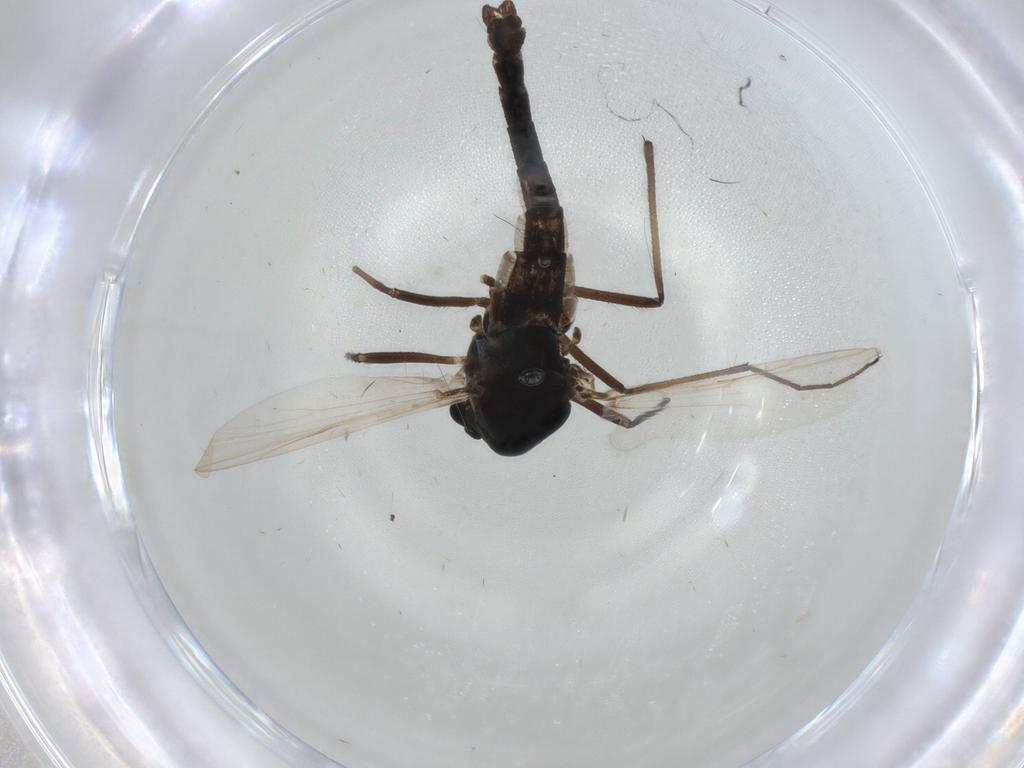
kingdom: Animalia
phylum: Arthropoda
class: Insecta
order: Diptera
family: Chironomidae
